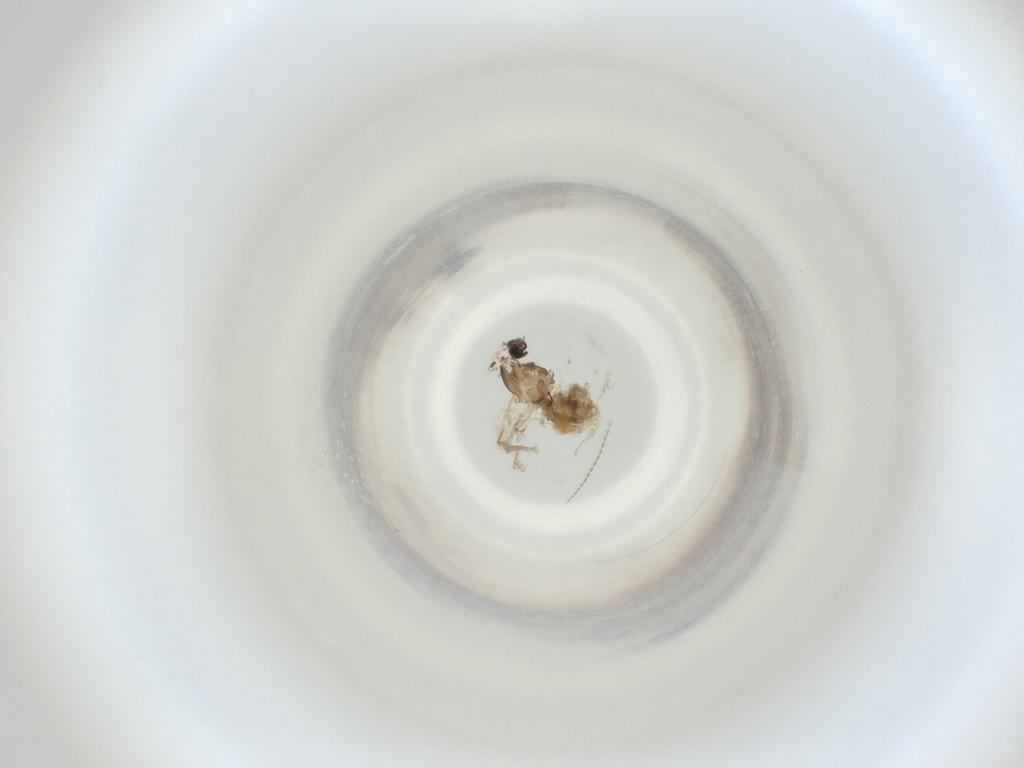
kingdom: Animalia
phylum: Arthropoda
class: Insecta
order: Diptera
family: Cecidomyiidae
